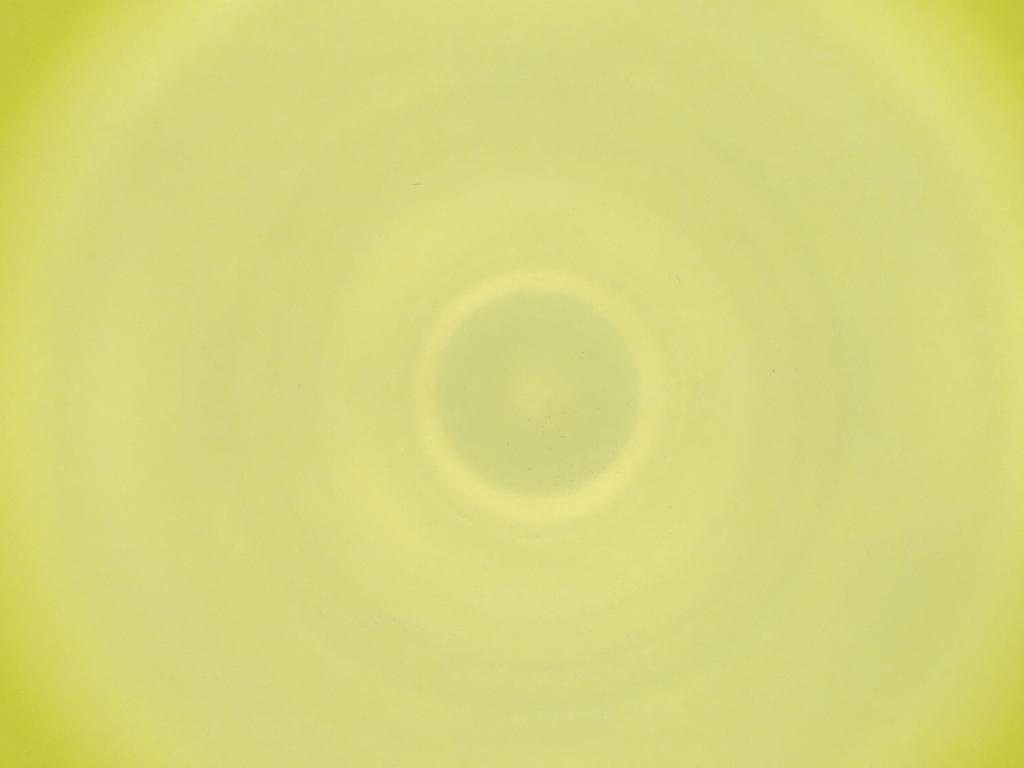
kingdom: Animalia
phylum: Arthropoda
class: Insecta
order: Diptera
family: Cecidomyiidae
